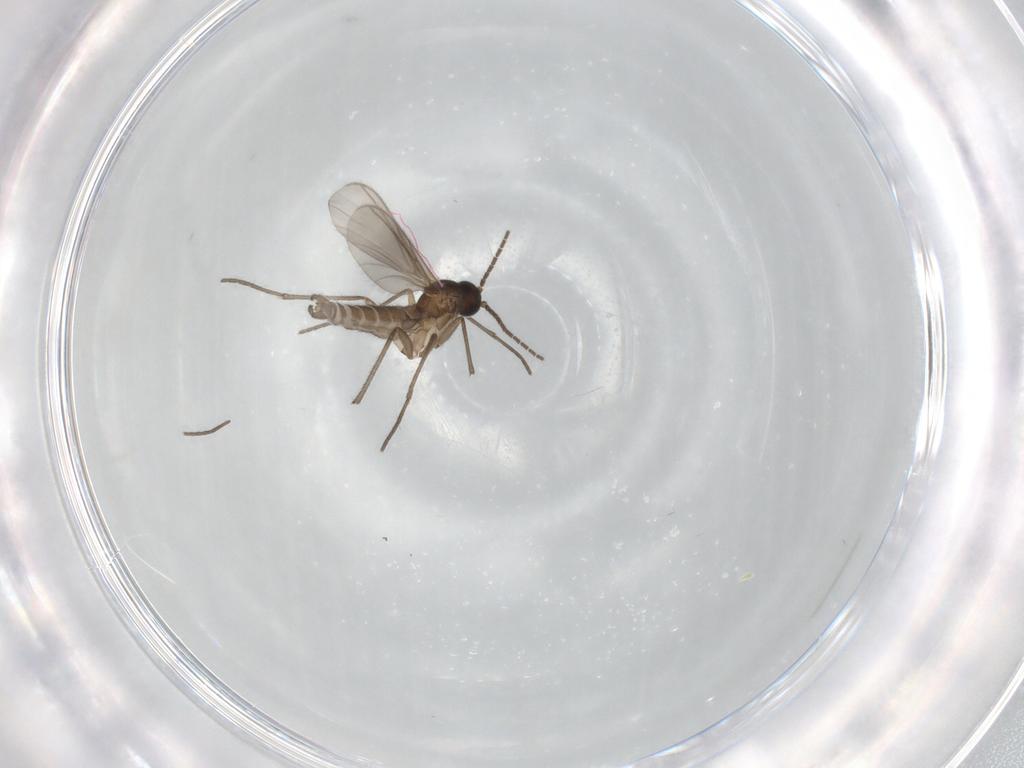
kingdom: Animalia
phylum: Arthropoda
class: Insecta
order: Diptera
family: Sciaridae
